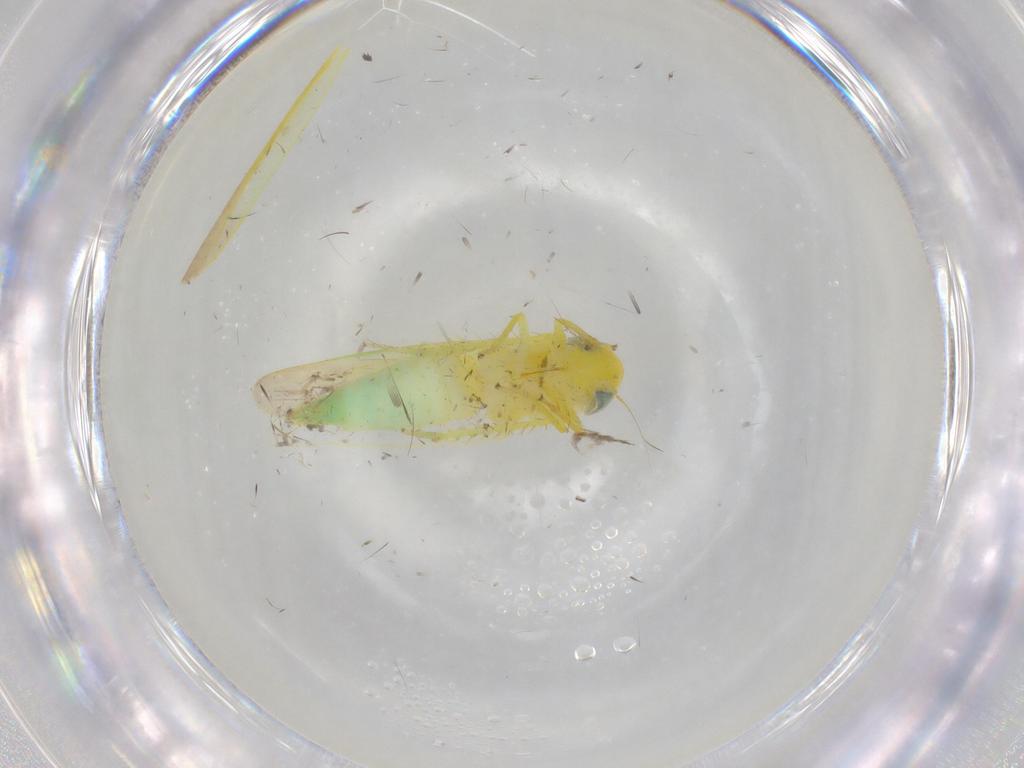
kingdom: Animalia
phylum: Arthropoda
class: Insecta
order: Hemiptera
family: Cicadellidae
